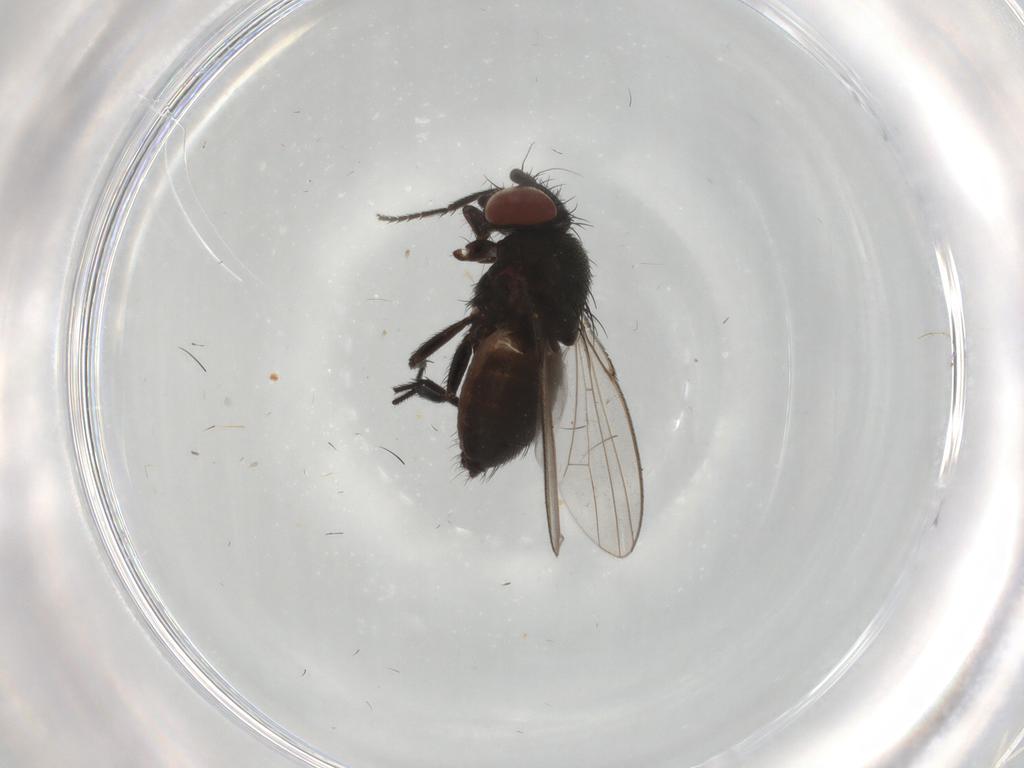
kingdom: Animalia
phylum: Arthropoda
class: Insecta
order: Diptera
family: Milichiidae
